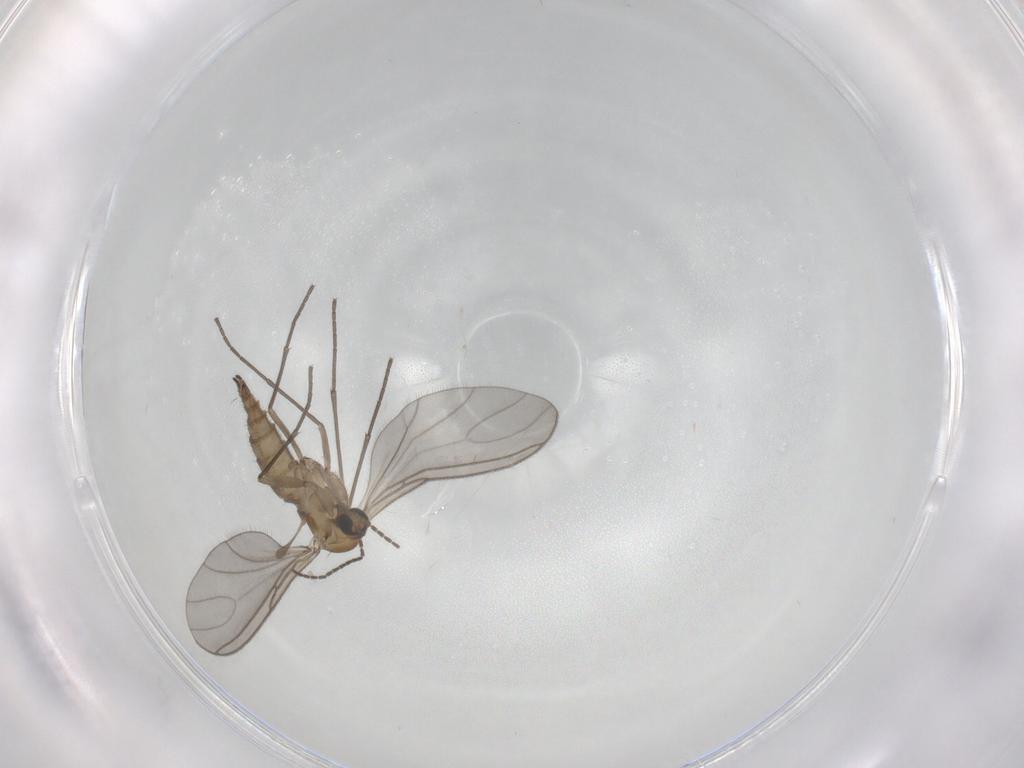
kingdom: Animalia
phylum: Arthropoda
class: Insecta
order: Diptera
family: Sciaridae
